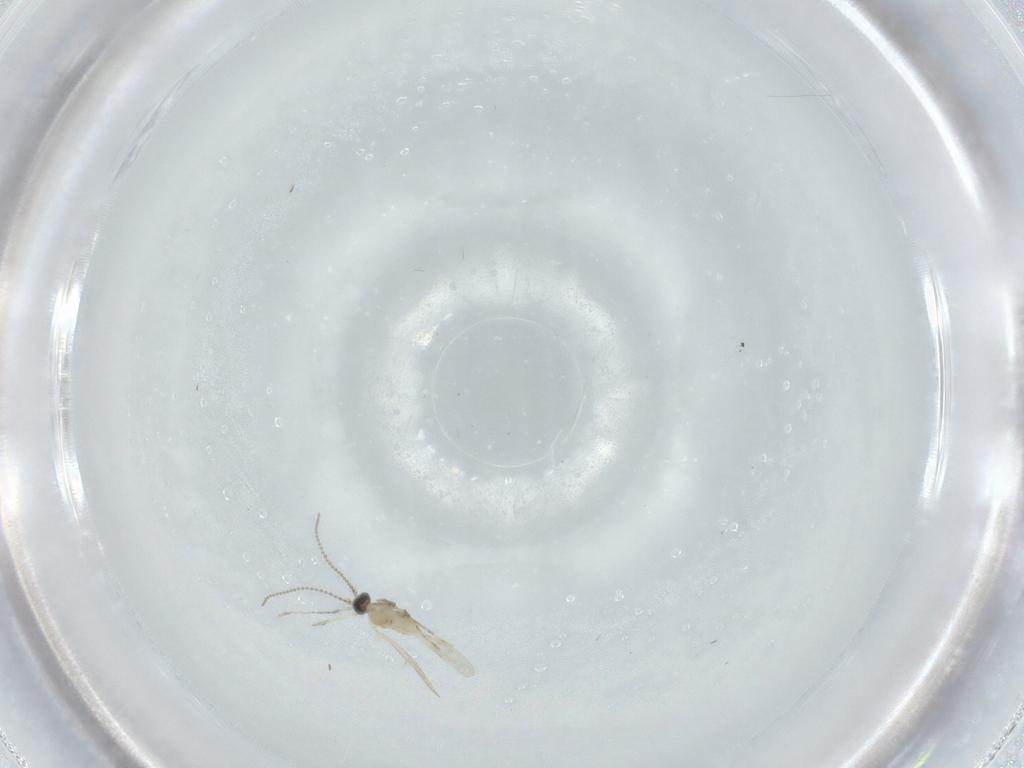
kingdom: Animalia
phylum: Arthropoda
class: Insecta
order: Diptera
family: Cecidomyiidae
